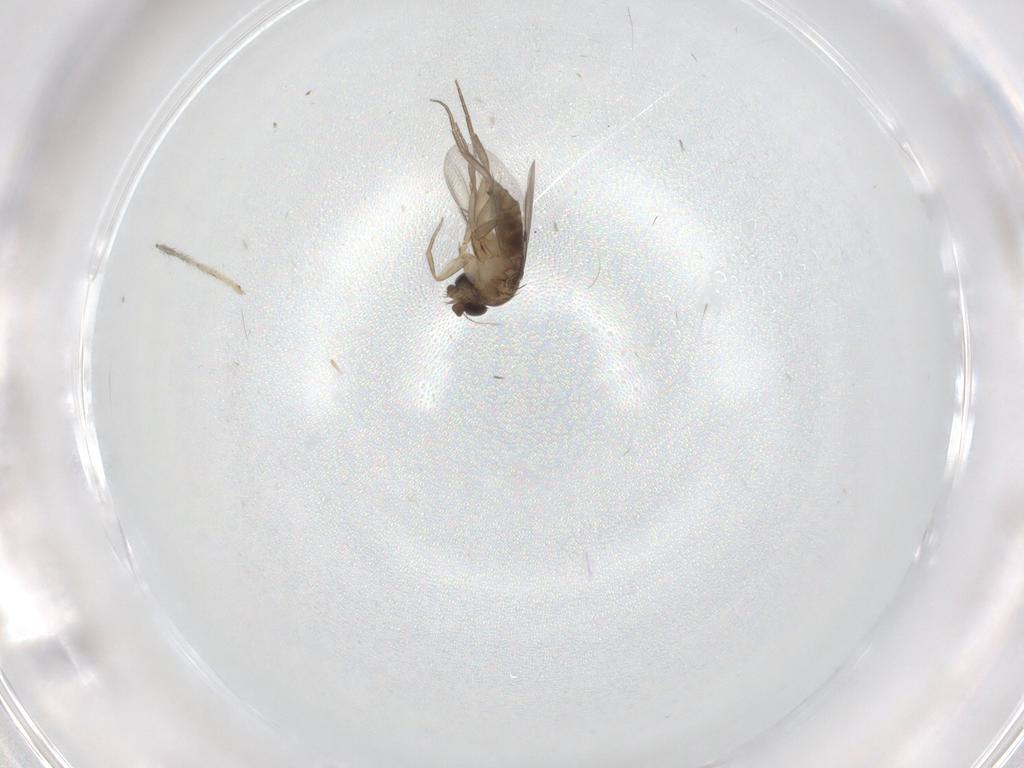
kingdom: Animalia
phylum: Arthropoda
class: Insecta
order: Diptera
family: Phoridae
